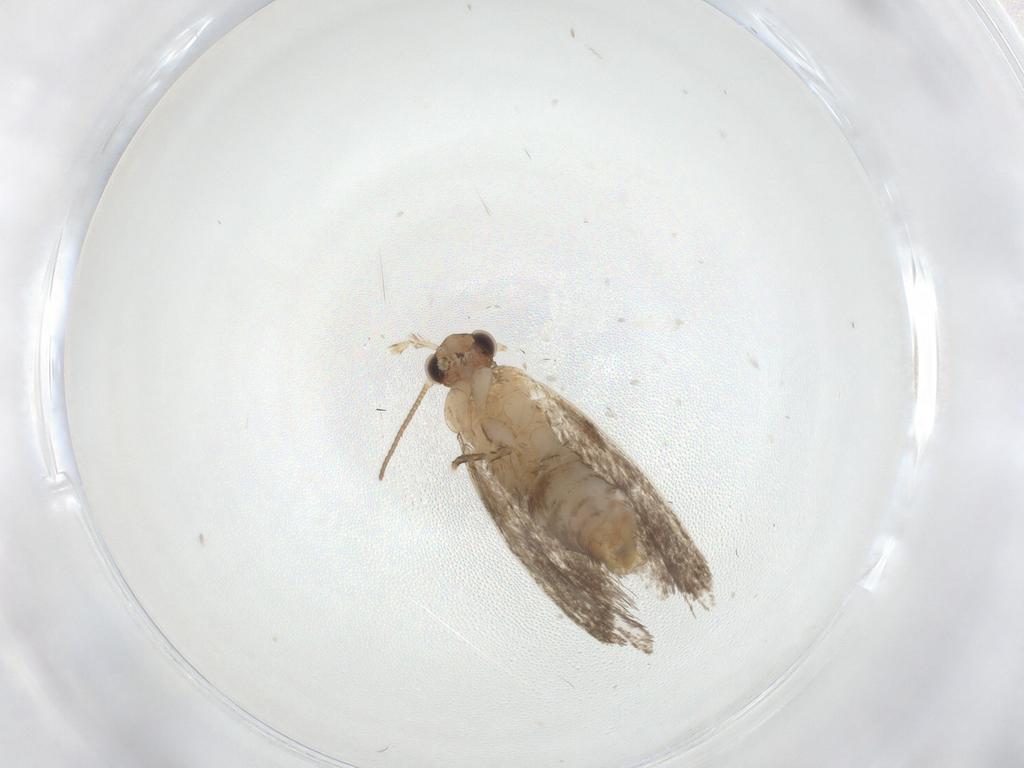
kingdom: Animalia
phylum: Arthropoda
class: Insecta
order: Lepidoptera
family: Dryadaulidae
